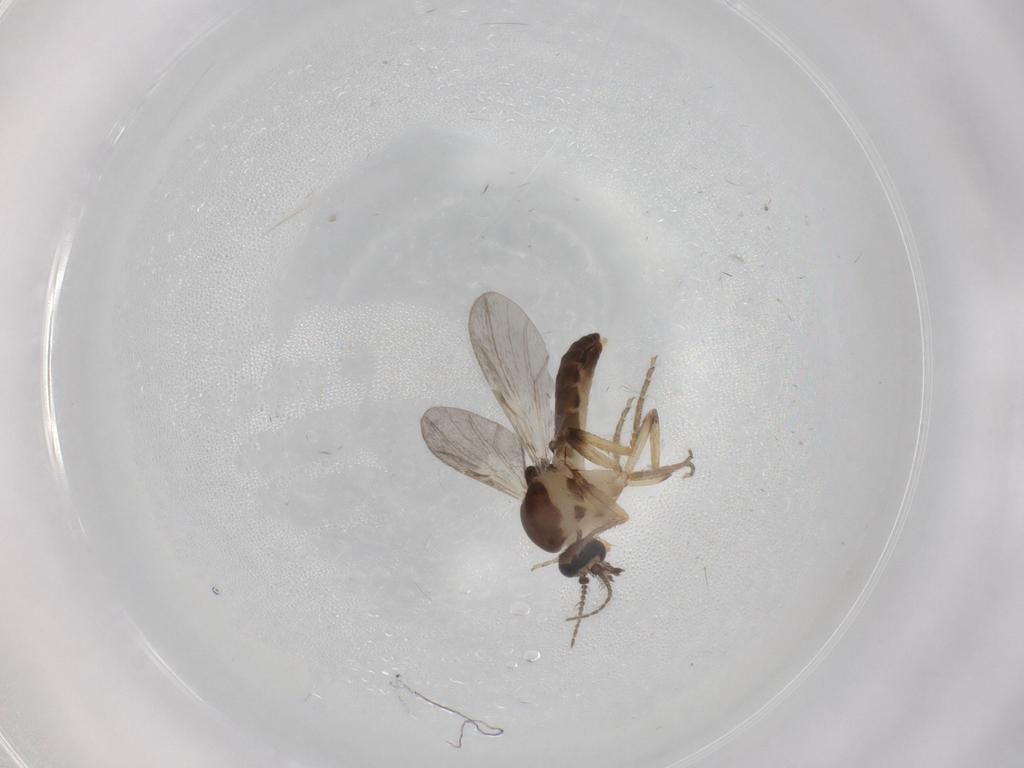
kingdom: Animalia
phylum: Arthropoda
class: Insecta
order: Diptera
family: Ceratopogonidae
